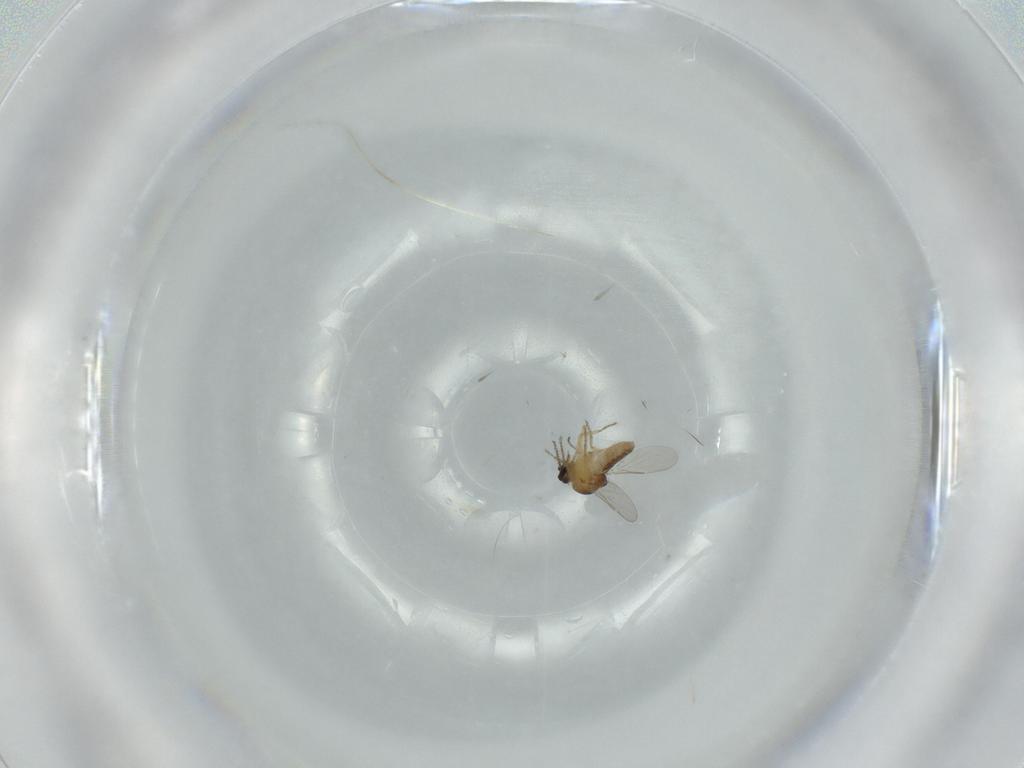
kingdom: Animalia
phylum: Arthropoda
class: Insecta
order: Diptera
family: Ceratopogonidae
